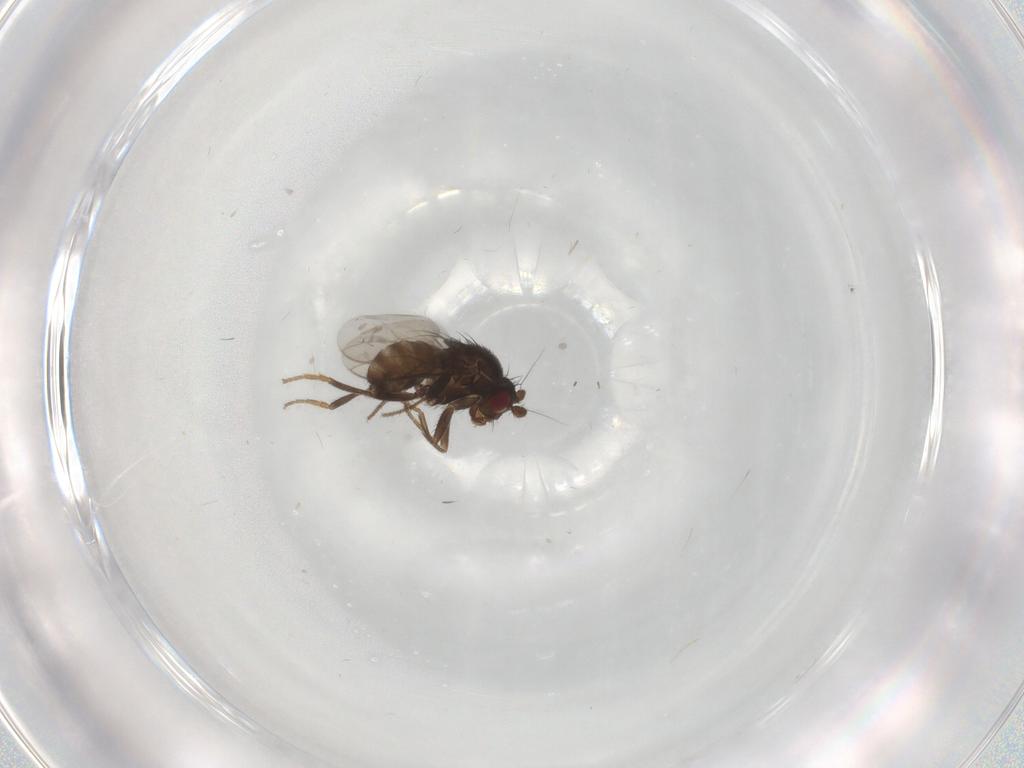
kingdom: Animalia
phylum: Arthropoda
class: Insecta
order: Diptera
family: Sphaeroceridae
